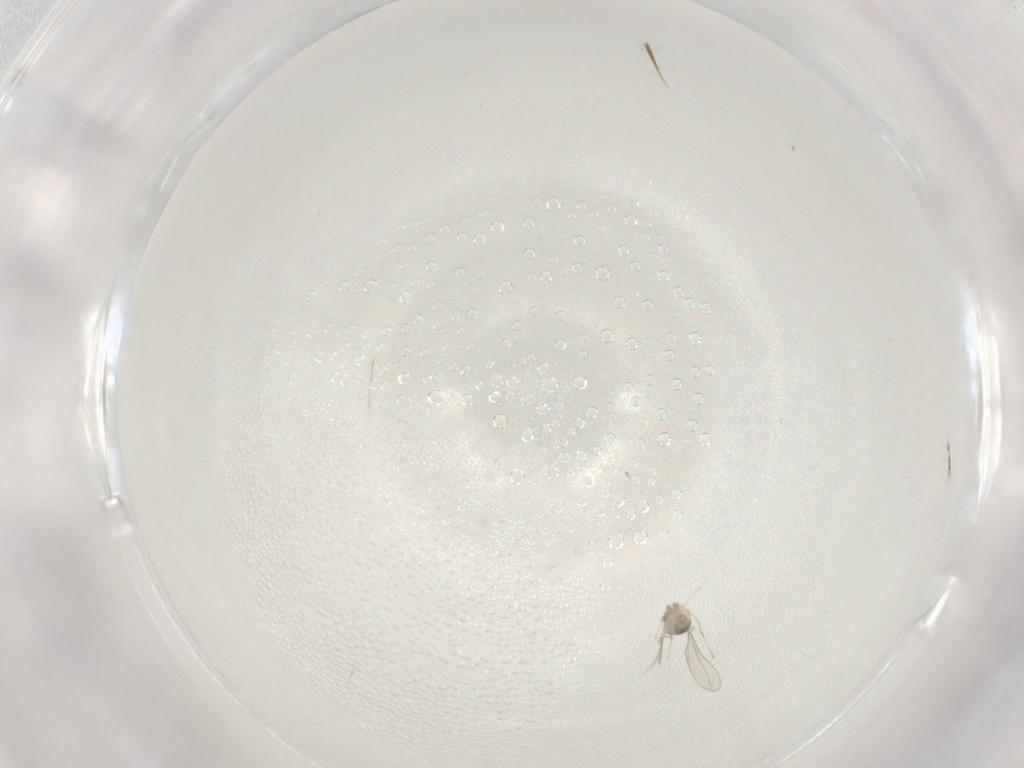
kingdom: Animalia
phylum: Arthropoda
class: Insecta
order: Diptera
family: Cecidomyiidae
